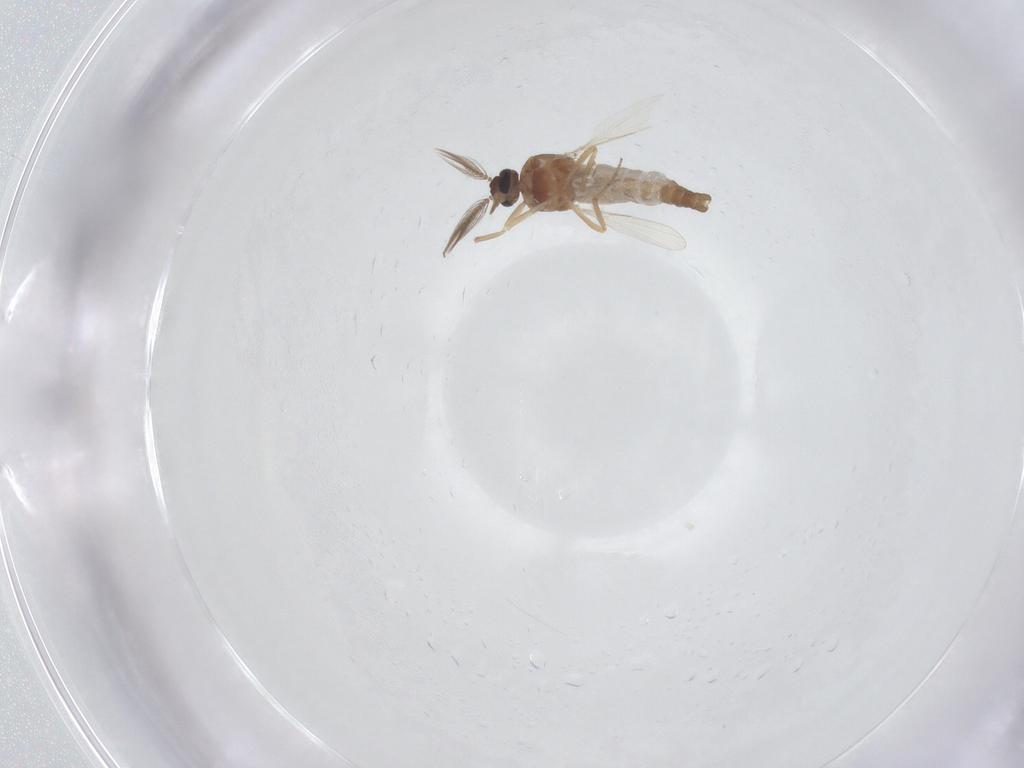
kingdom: Animalia
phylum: Arthropoda
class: Insecta
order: Diptera
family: Ceratopogonidae
